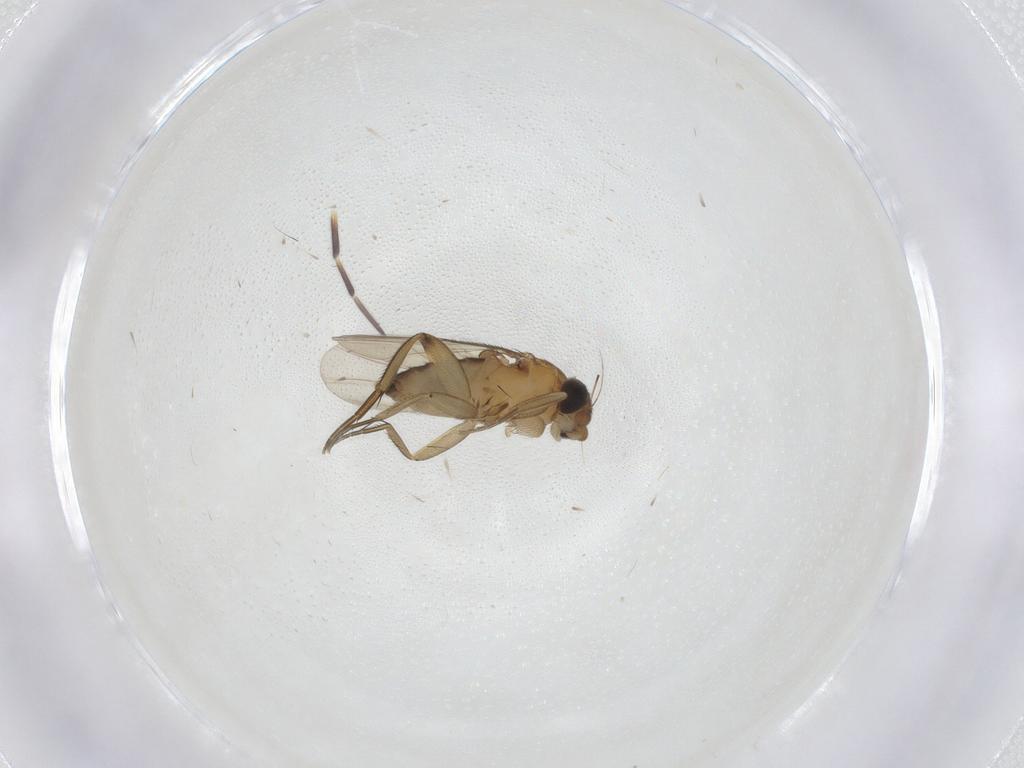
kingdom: Animalia
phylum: Arthropoda
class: Insecta
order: Diptera
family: Phoridae
